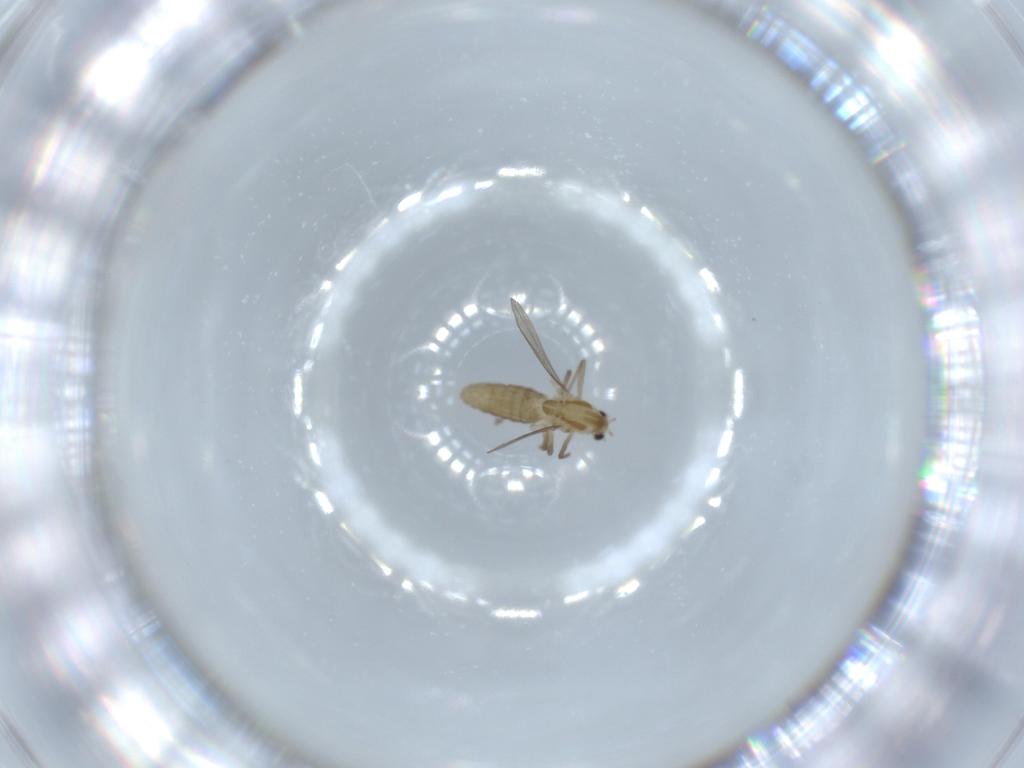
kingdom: Animalia
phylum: Arthropoda
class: Insecta
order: Diptera
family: Chironomidae
